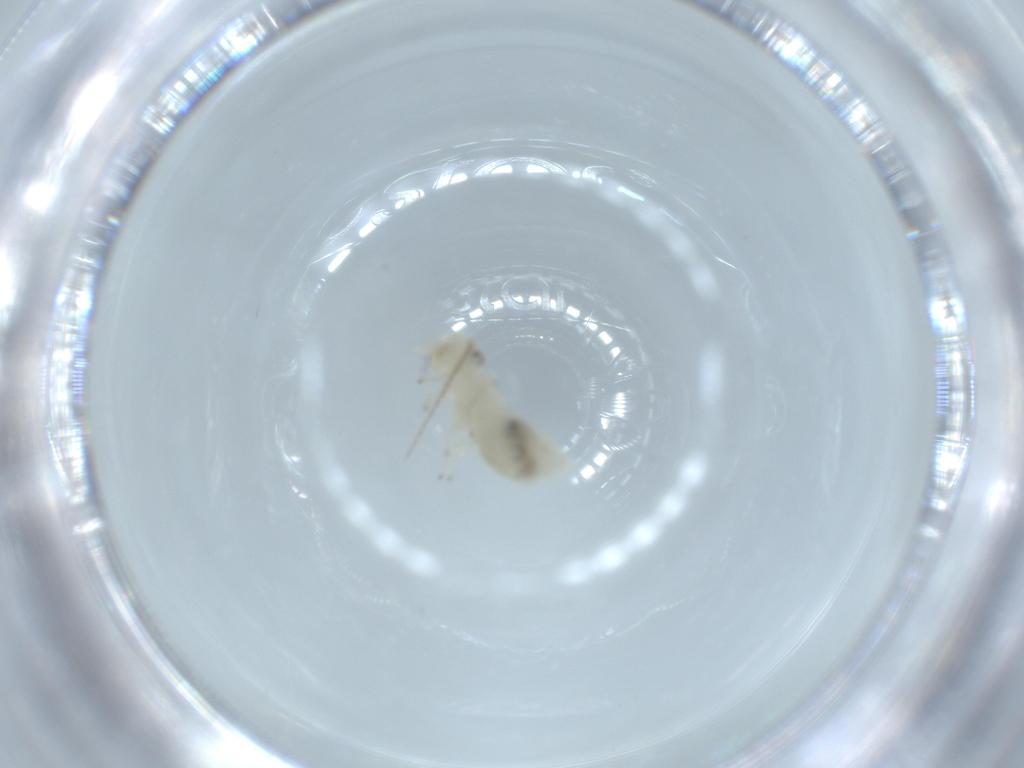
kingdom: Animalia
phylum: Arthropoda
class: Insecta
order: Psocodea
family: Caeciliusidae
